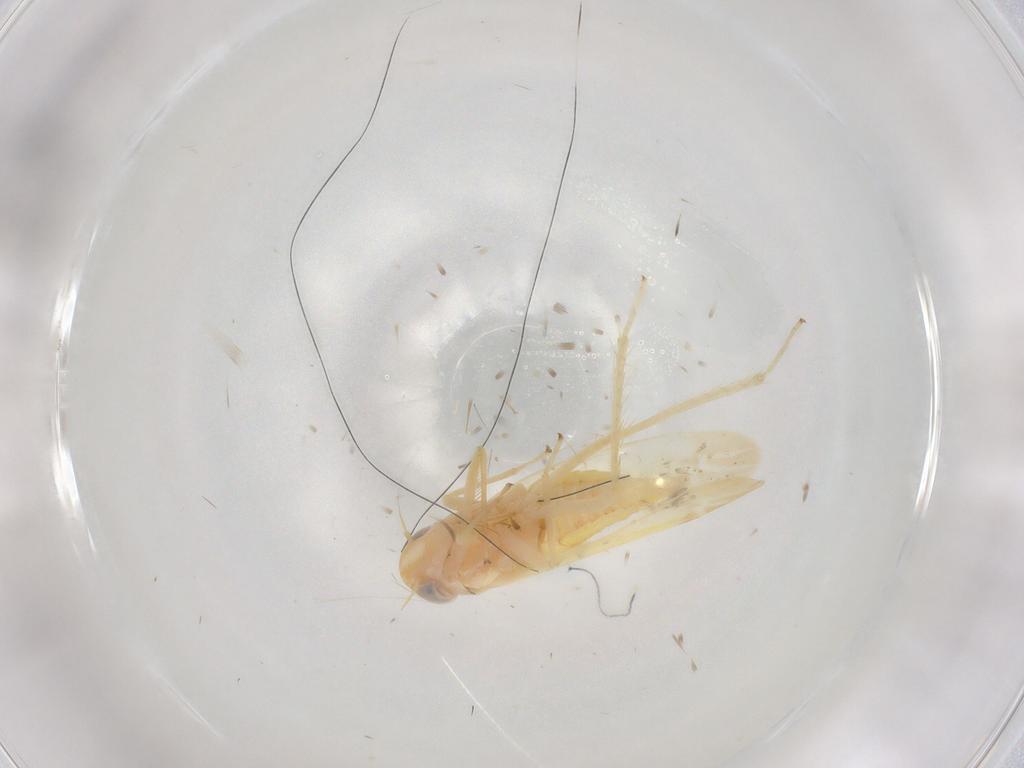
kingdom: Animalia
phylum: Arthropoda
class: Insecta
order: Hemiptera
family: Cicadellidae
